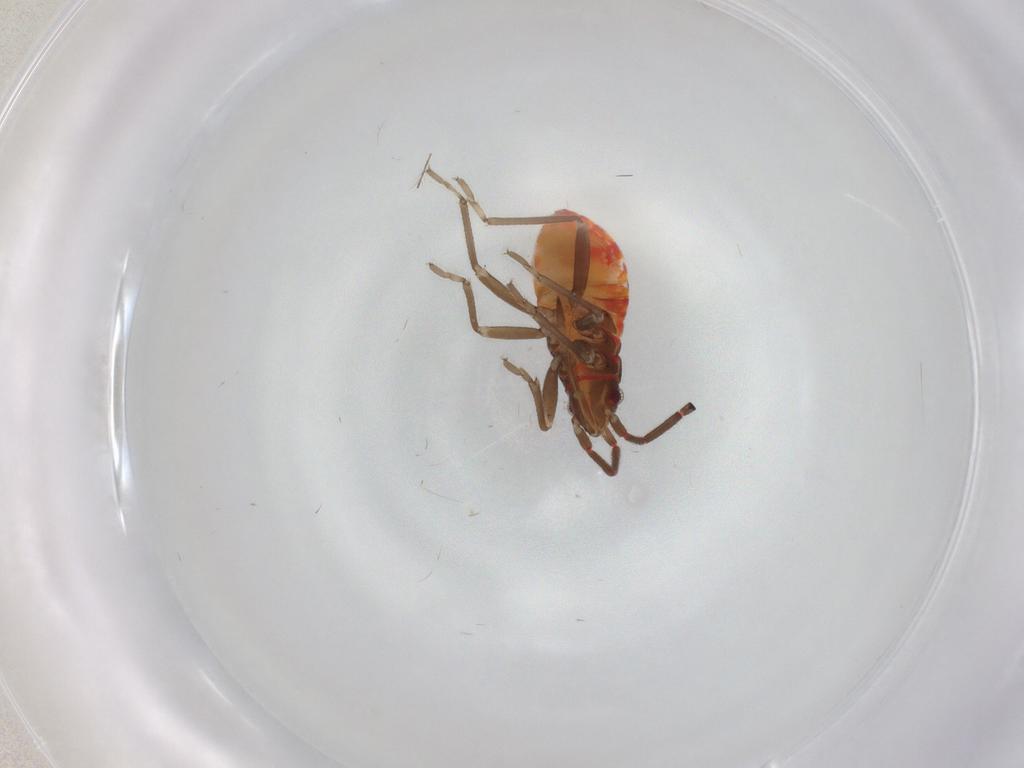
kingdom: Animalia
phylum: Arthropoda
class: Insecta
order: Hemiptera
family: Rhyparochromidae
